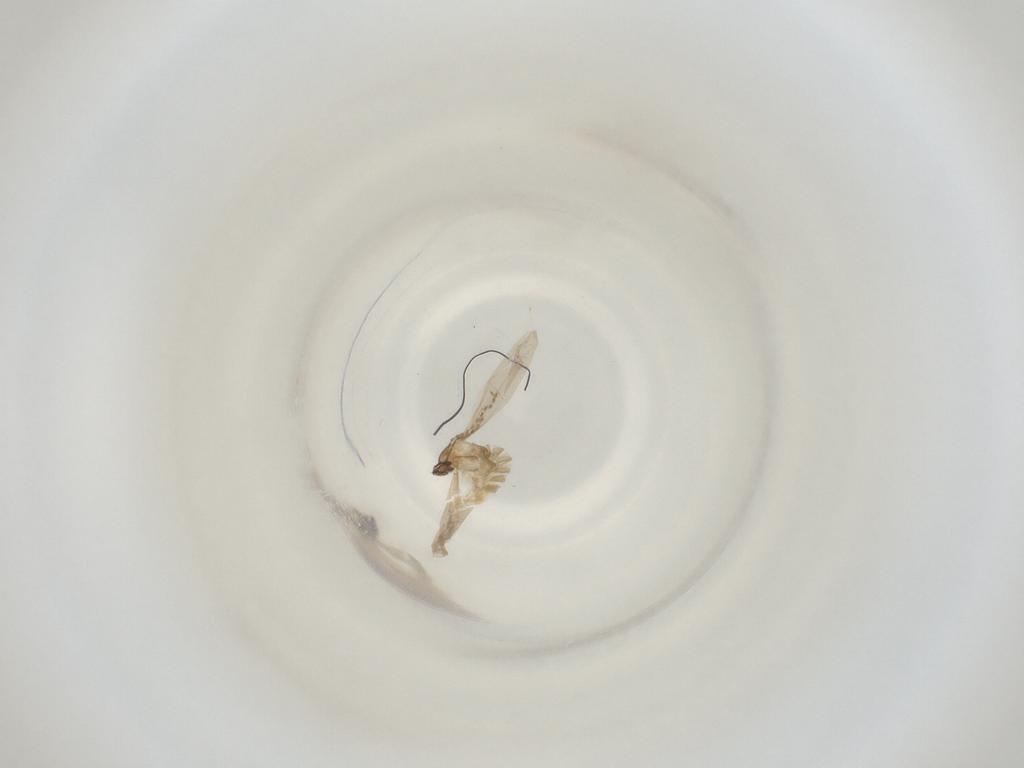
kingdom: Animalia
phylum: Arthropoda
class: Insecta
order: Diptera
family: Cecidomyiidae
